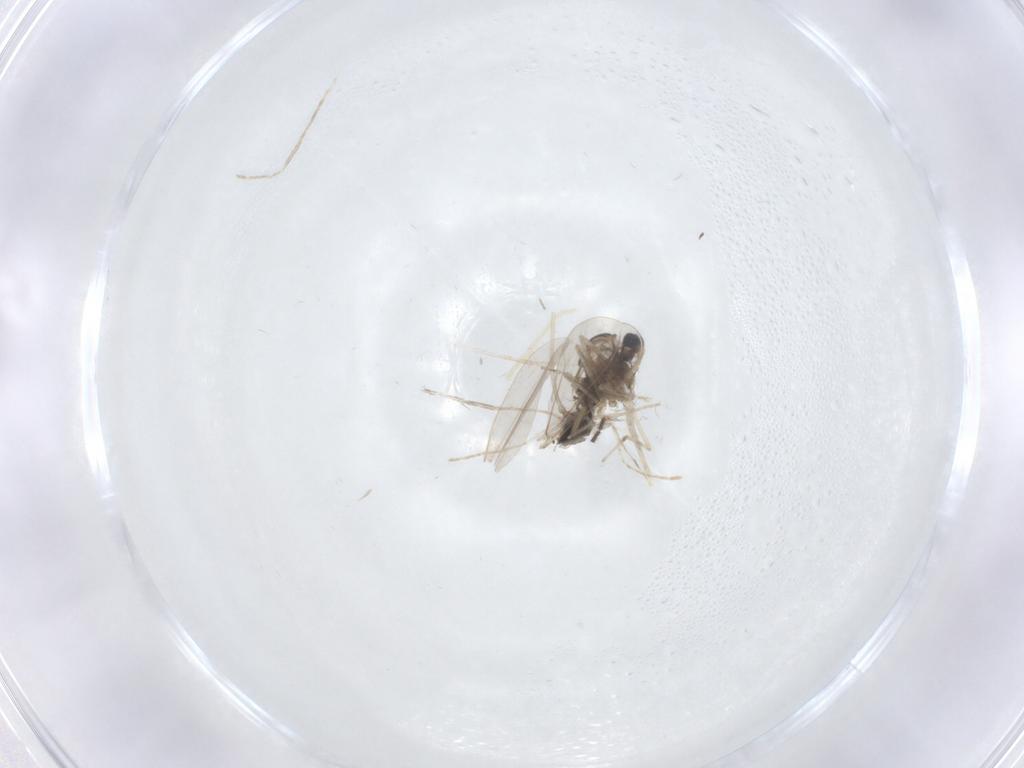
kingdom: Animalia
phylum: Arthropoda
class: Insecta
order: Diptera
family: Cecidomyiidae
